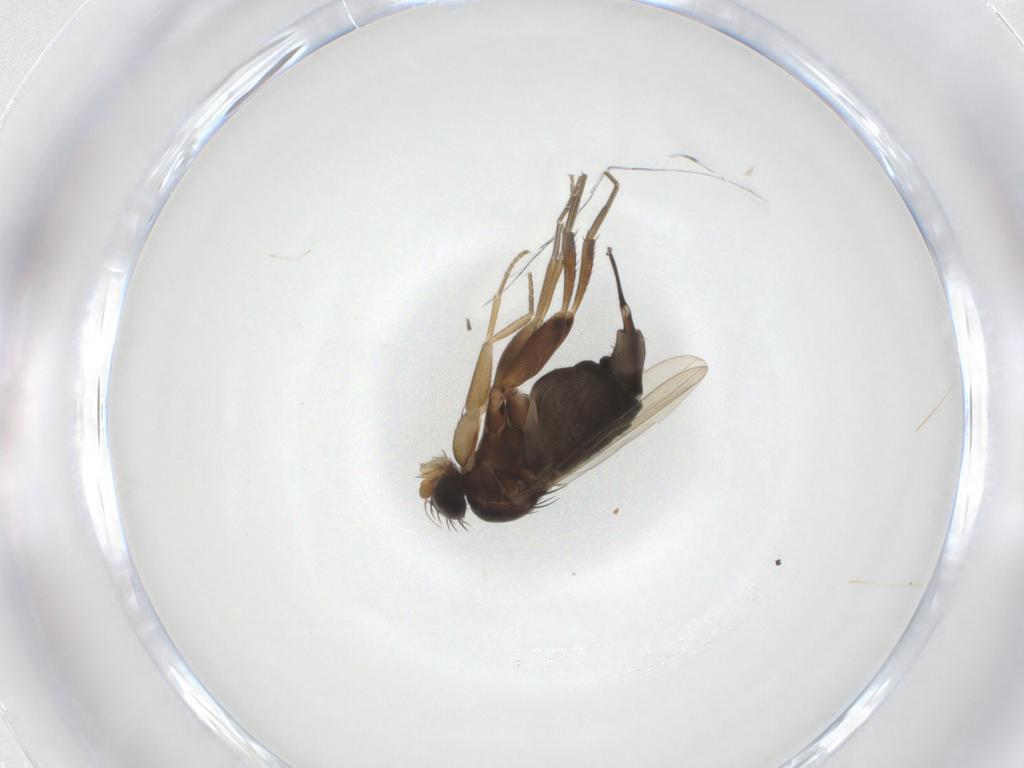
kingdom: Animalia
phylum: Arthropoda
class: Insecta
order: Diptera
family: Phoridae
